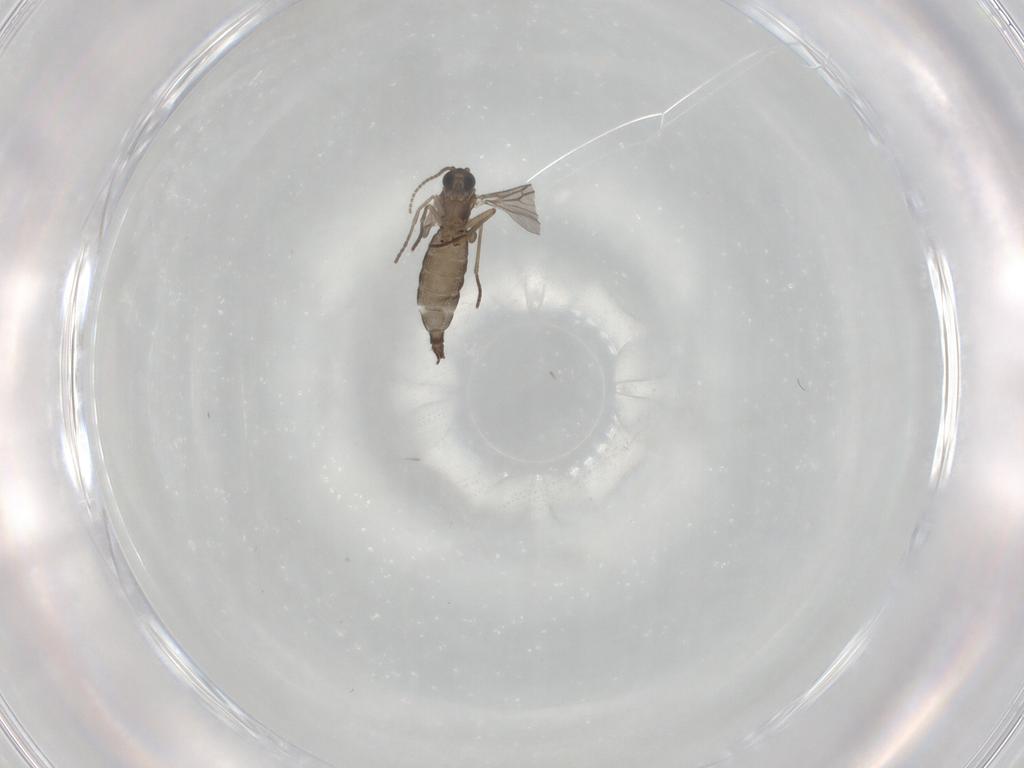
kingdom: Animalia
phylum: Arthropoda
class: Insecta
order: Diptera
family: Sciaridae
